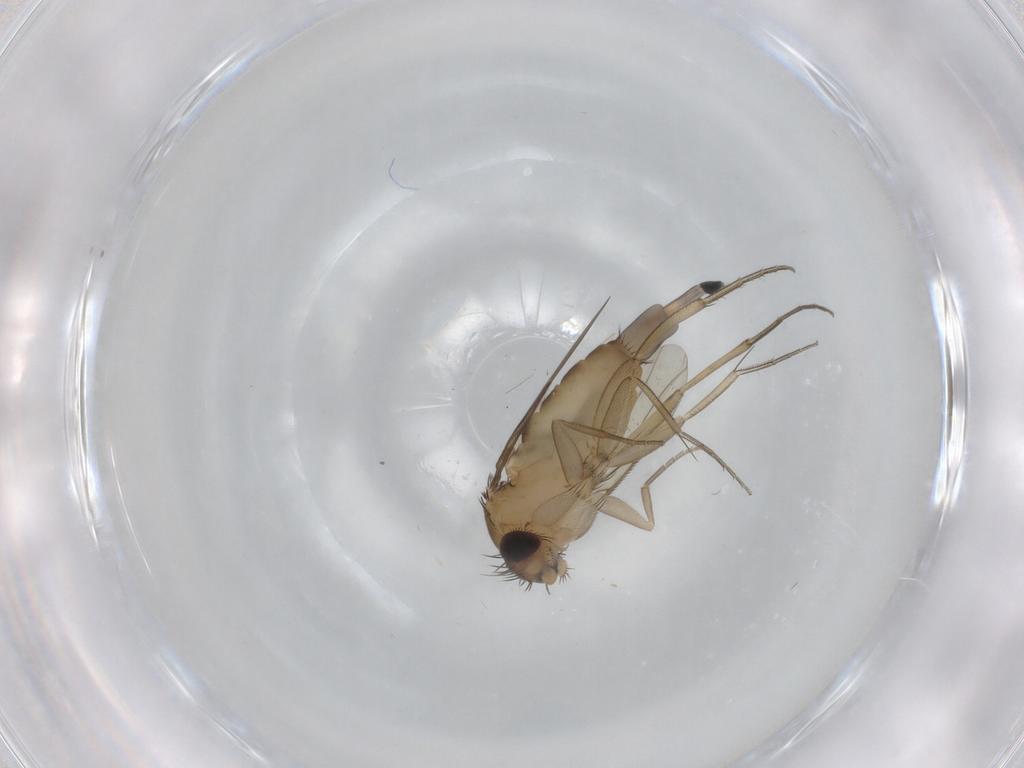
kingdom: Animalia
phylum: Arthropoda
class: Insecta
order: Diptera
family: Phoridae
